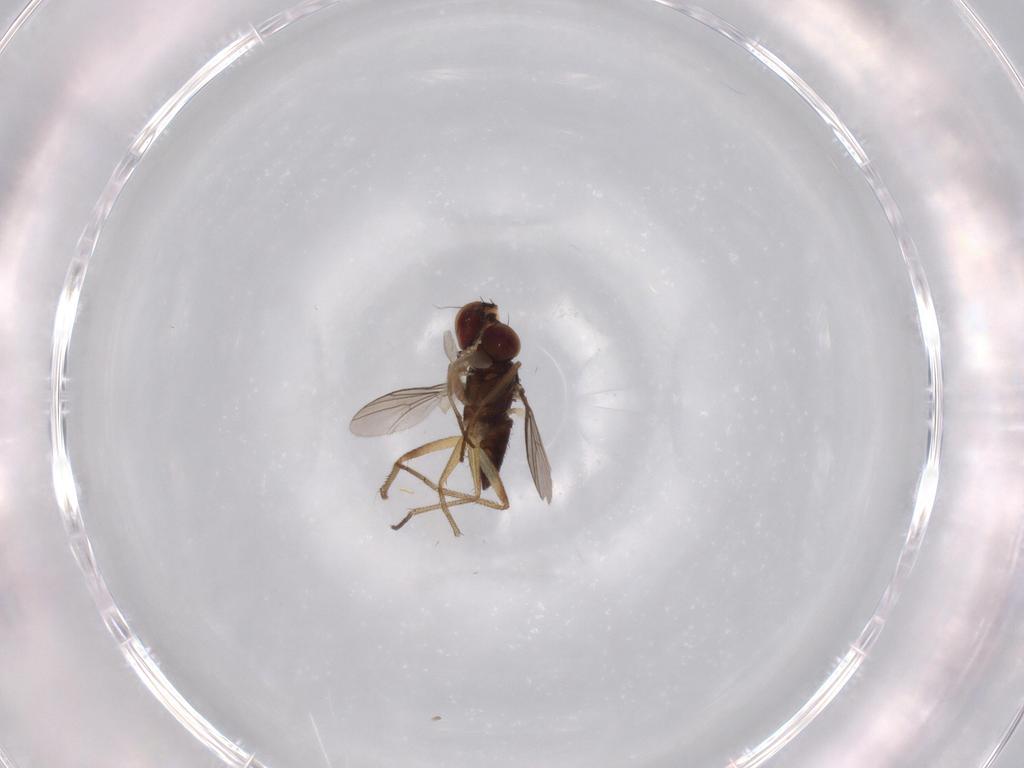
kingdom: Animalia
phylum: Arthropoda
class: Insecta
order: Diptera
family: Dolichopodidae
